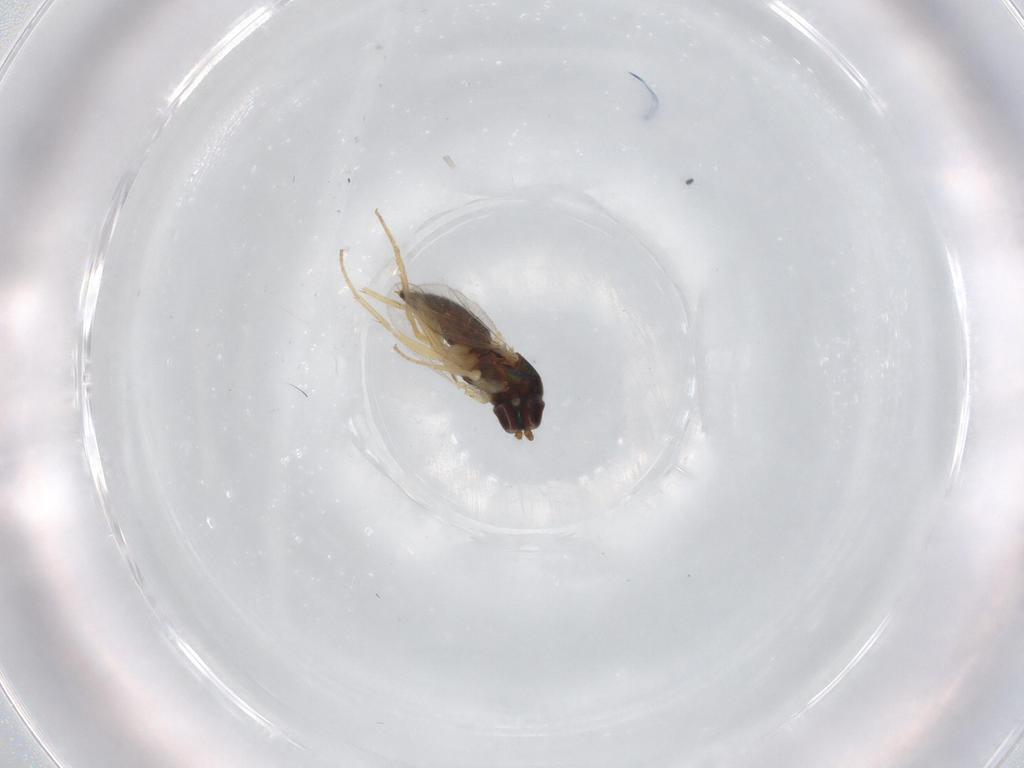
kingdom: Animalia
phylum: Arthropoda
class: Insecta
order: Diptera
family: Dolichopodidae
